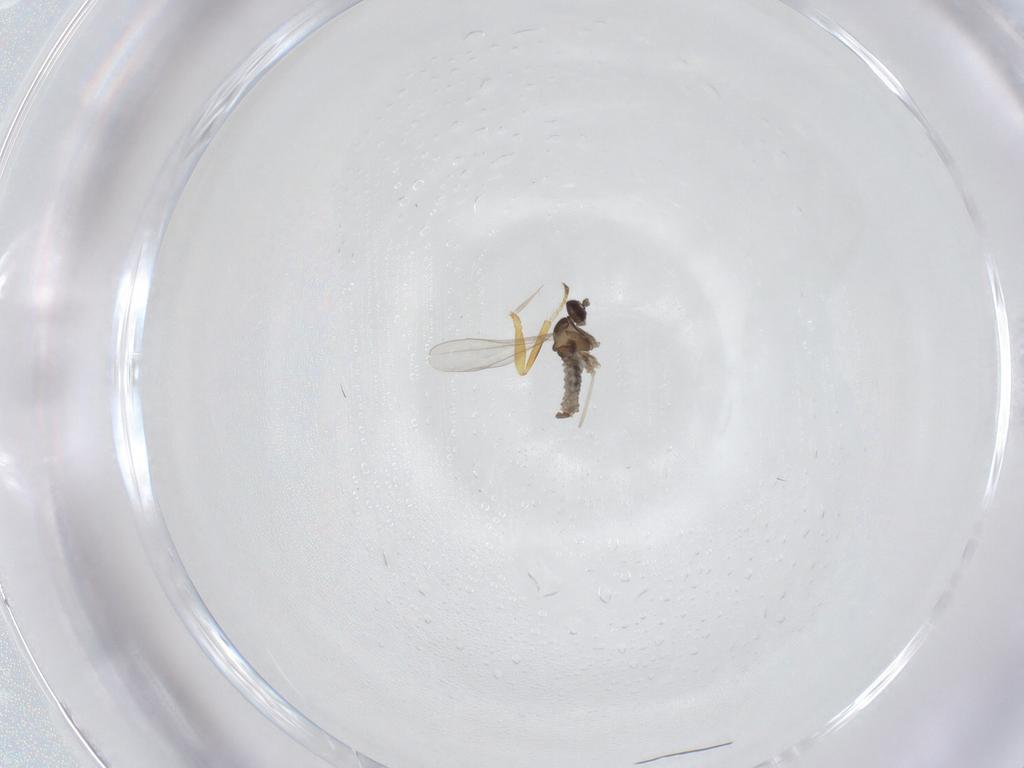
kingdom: Animalia
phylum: Arthropoda
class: Insecta
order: Diptera
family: Cecidomyiidae
